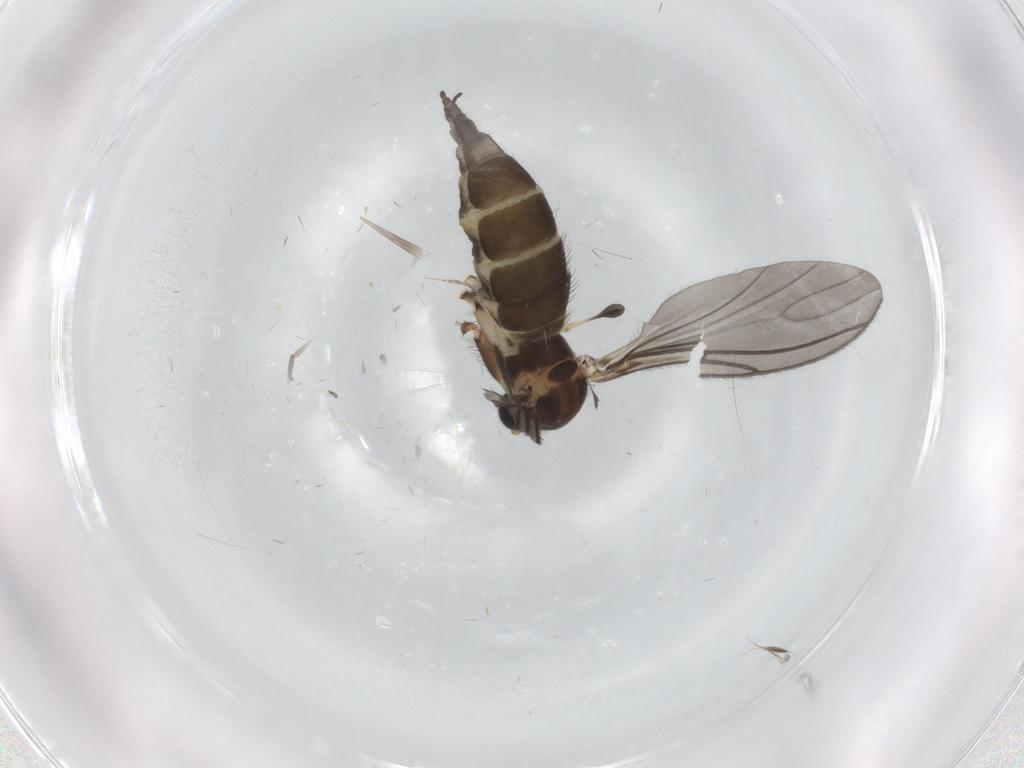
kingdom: Animalia
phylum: Arthropoda
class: Insecta
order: Diptera
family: Sciaridae
